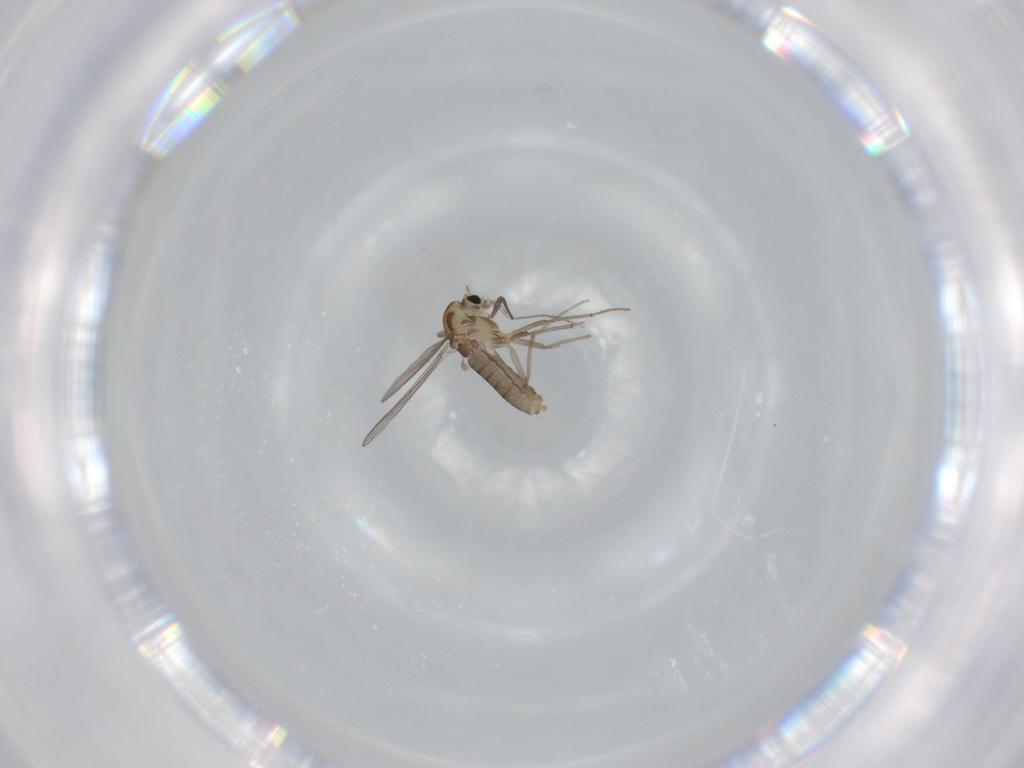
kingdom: Animalia
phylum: Arthropoda
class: Insecta
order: Diptera
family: Chironomidae
